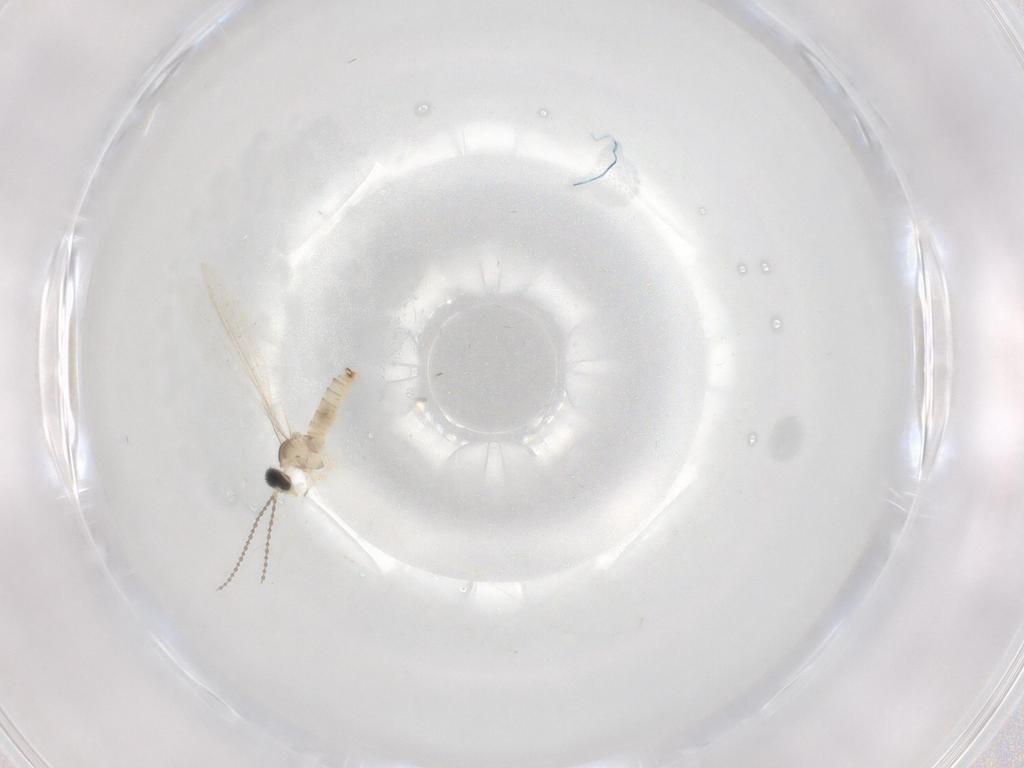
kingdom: Animalia
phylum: Arthropoda
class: Insecta
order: Diptera
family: Cecidomyiidae
